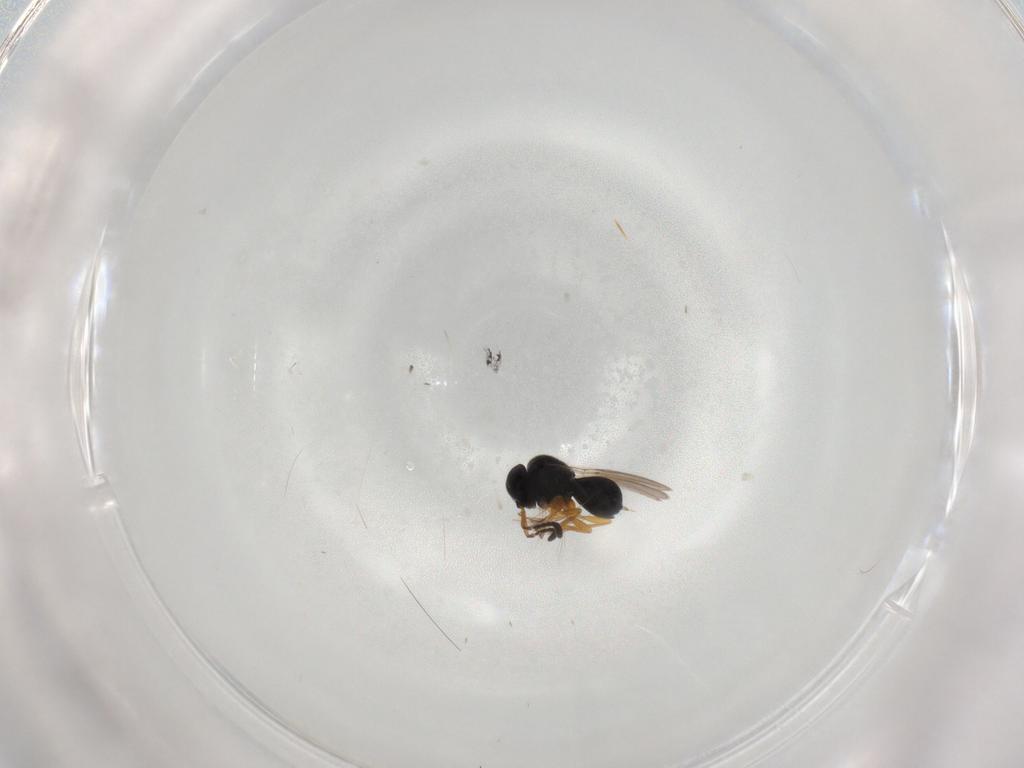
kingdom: Animalia
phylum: Arthropoda
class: Insecta
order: Hymenoptera
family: Scelionidae
